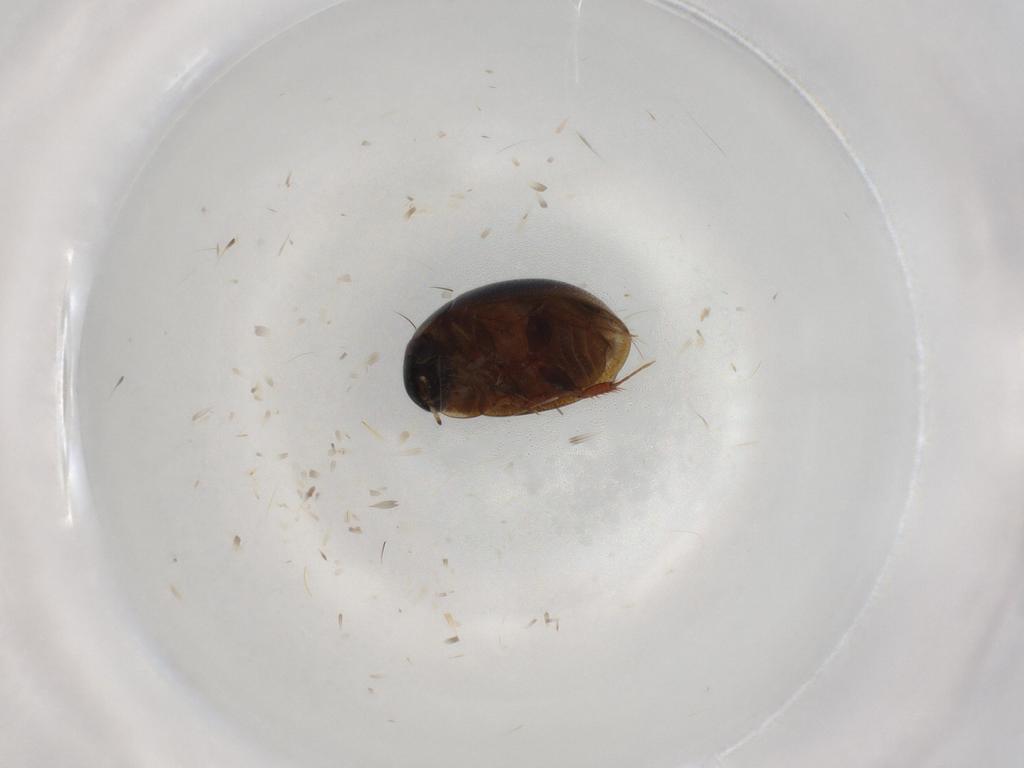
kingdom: Animalia
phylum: Arthropoda
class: Insecta
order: Coleoptera
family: Hydrophilidae
